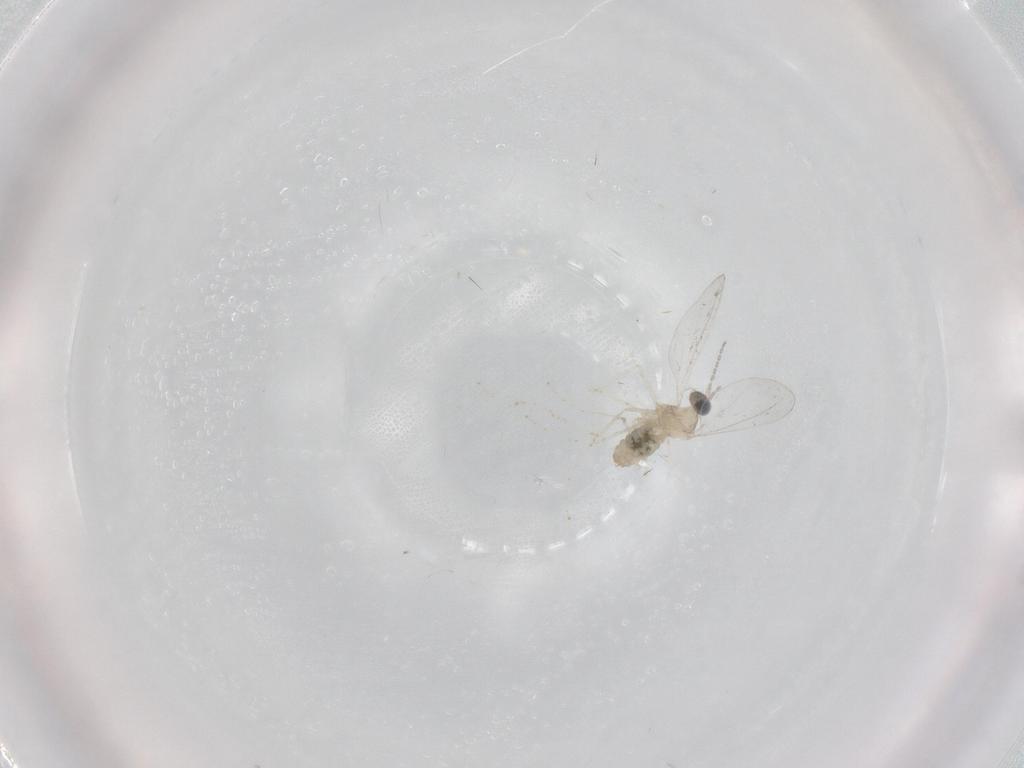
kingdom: Animalia
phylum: Arthropoda
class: Insecta
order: Diptera
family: Cecidomyiidae
